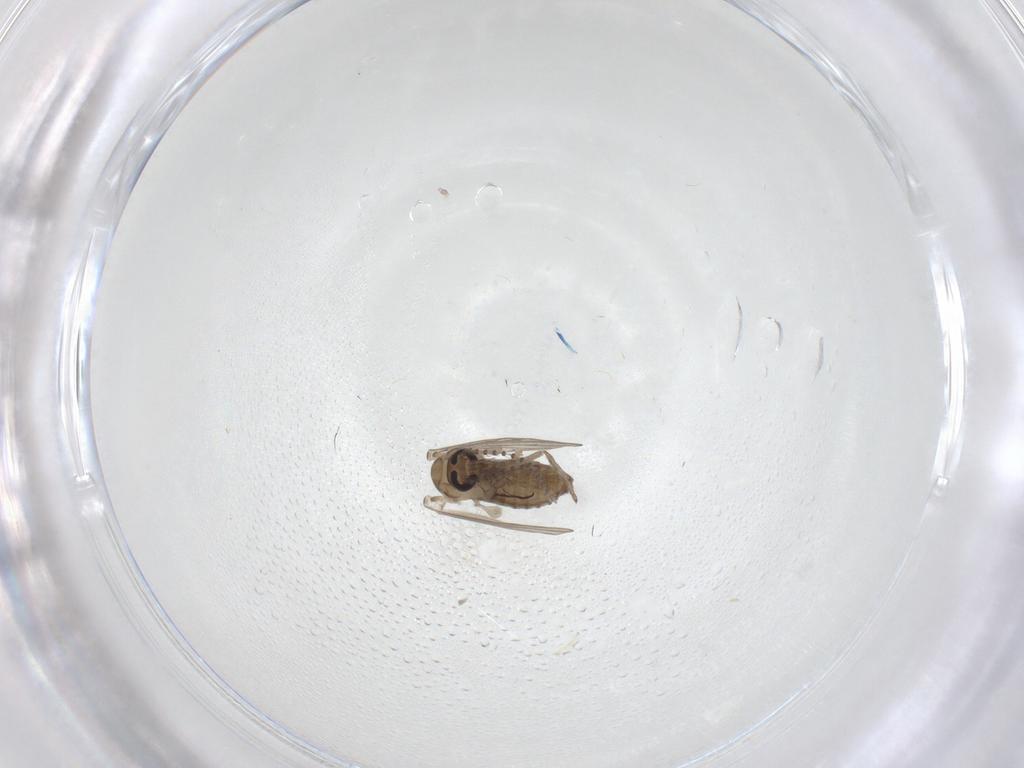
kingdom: Animalia
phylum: Arthropoda
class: Insecta
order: Diptera
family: Psychodidae
